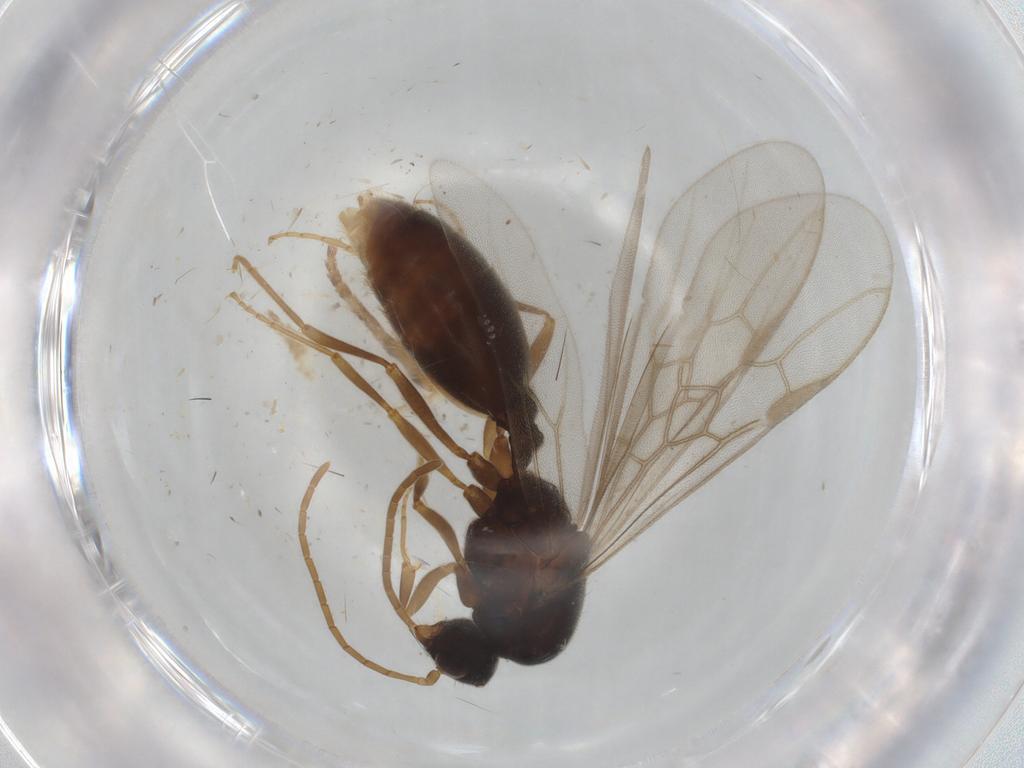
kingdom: Animalia
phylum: Arthropoda
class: Insecta
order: Hymenoptera
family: Formicidae
